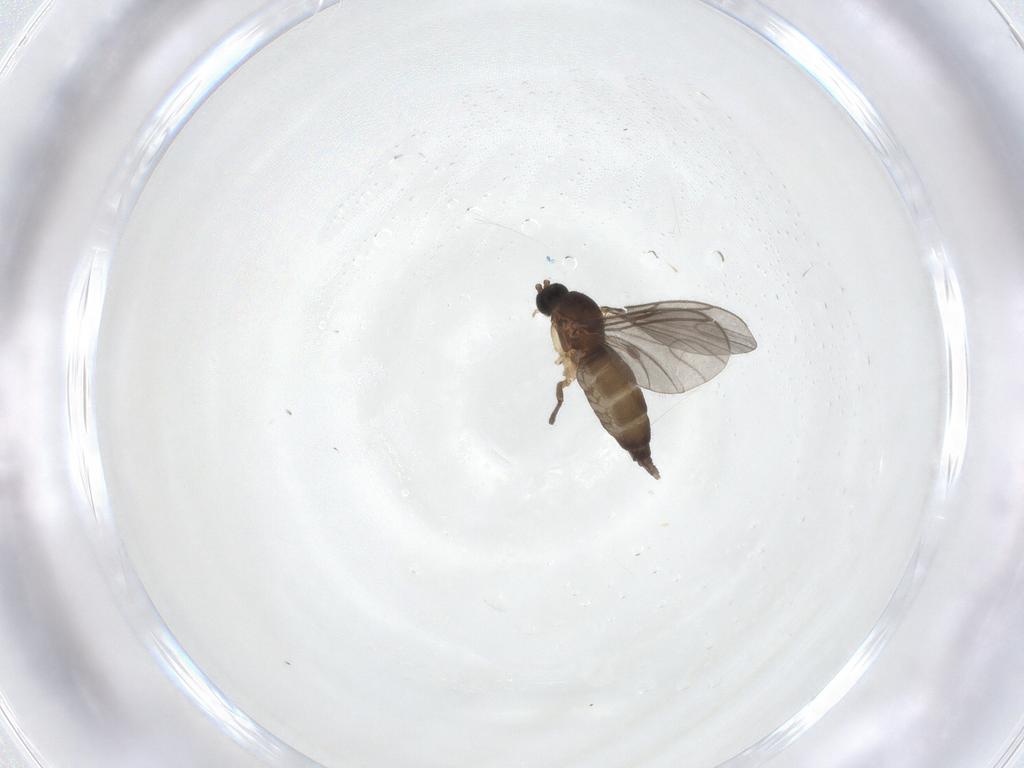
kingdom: Animalia
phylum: Arthropoda
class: Insecta
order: Diptera
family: Sciaridae
